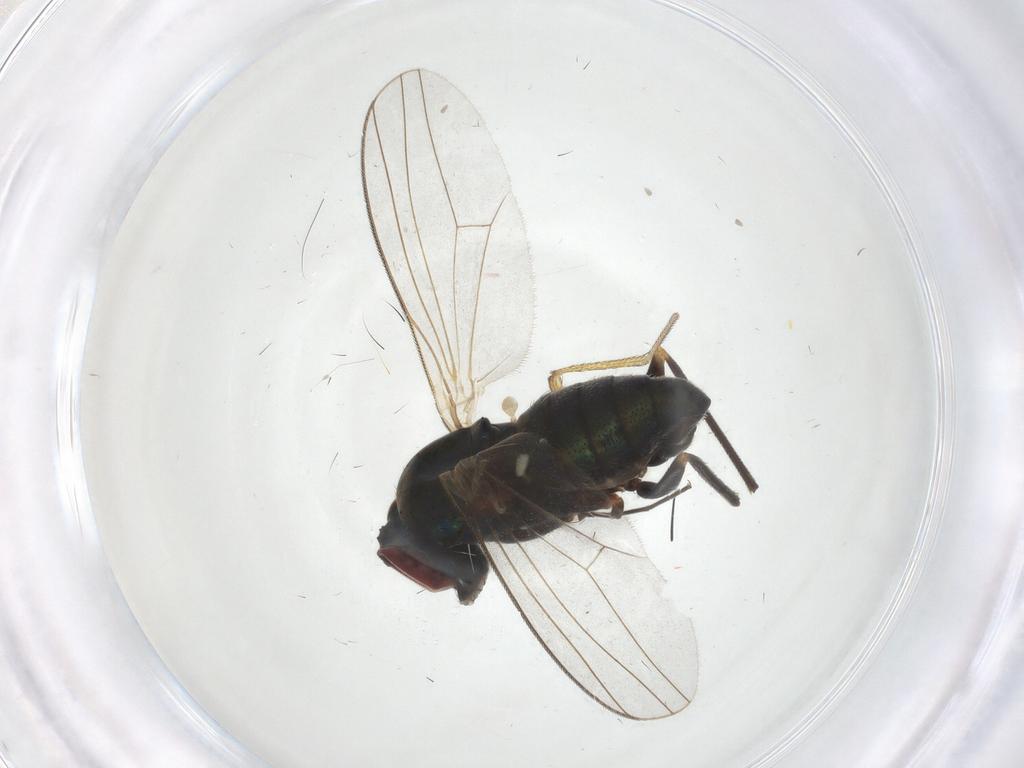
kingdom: Animalia
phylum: Arthropoda
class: Insecta
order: Diptera
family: Dolichopodidae
